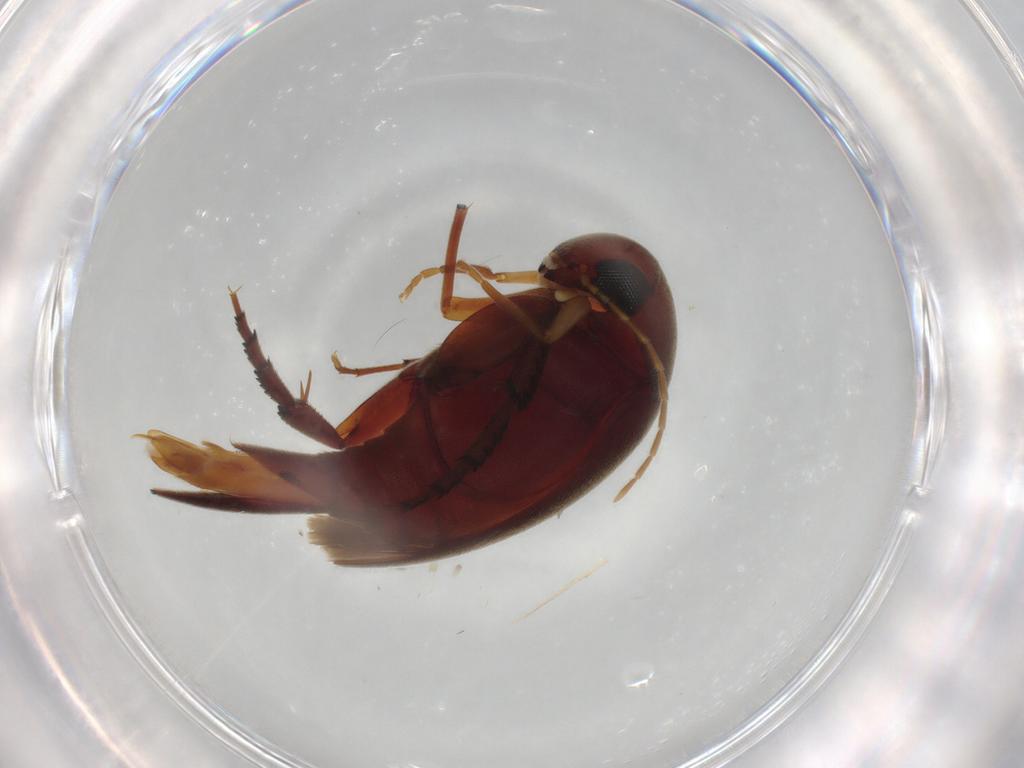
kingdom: Animalia
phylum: Arthropoda
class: Insecta
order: Coleoptera
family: Mordellidae
